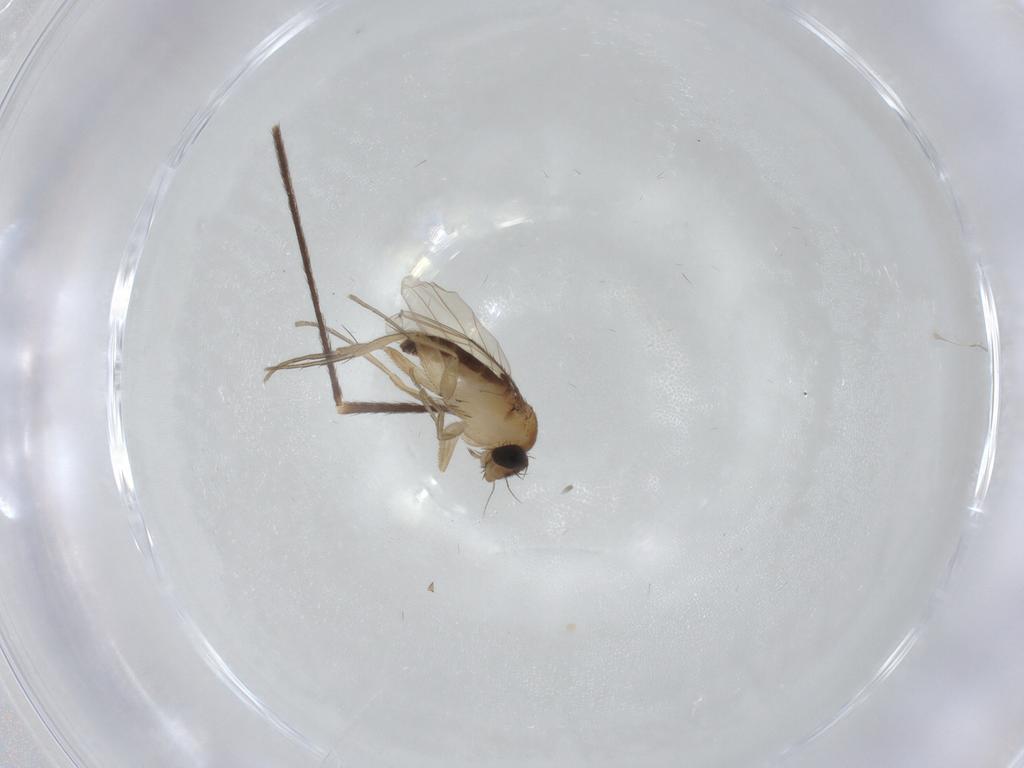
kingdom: Animalia
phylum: Arthropoda
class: Insecta
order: Diptera
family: Phoridae
